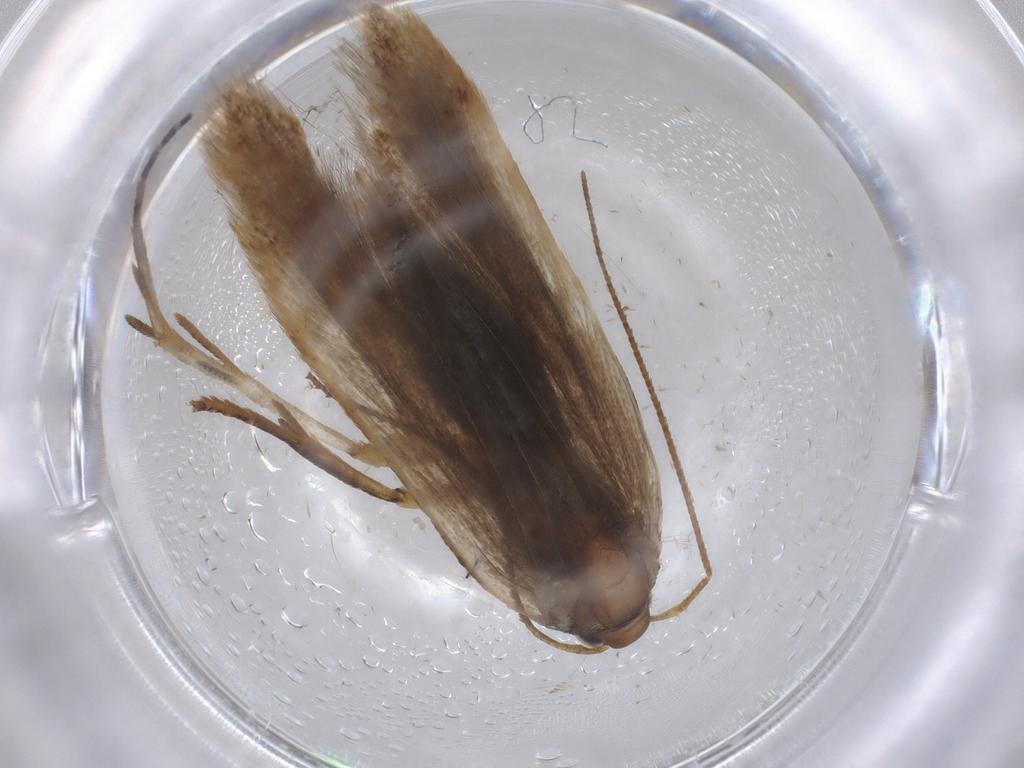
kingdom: Animalia
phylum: Arthropoda
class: Insecta
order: Lepidoptera
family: Gelechiidae
